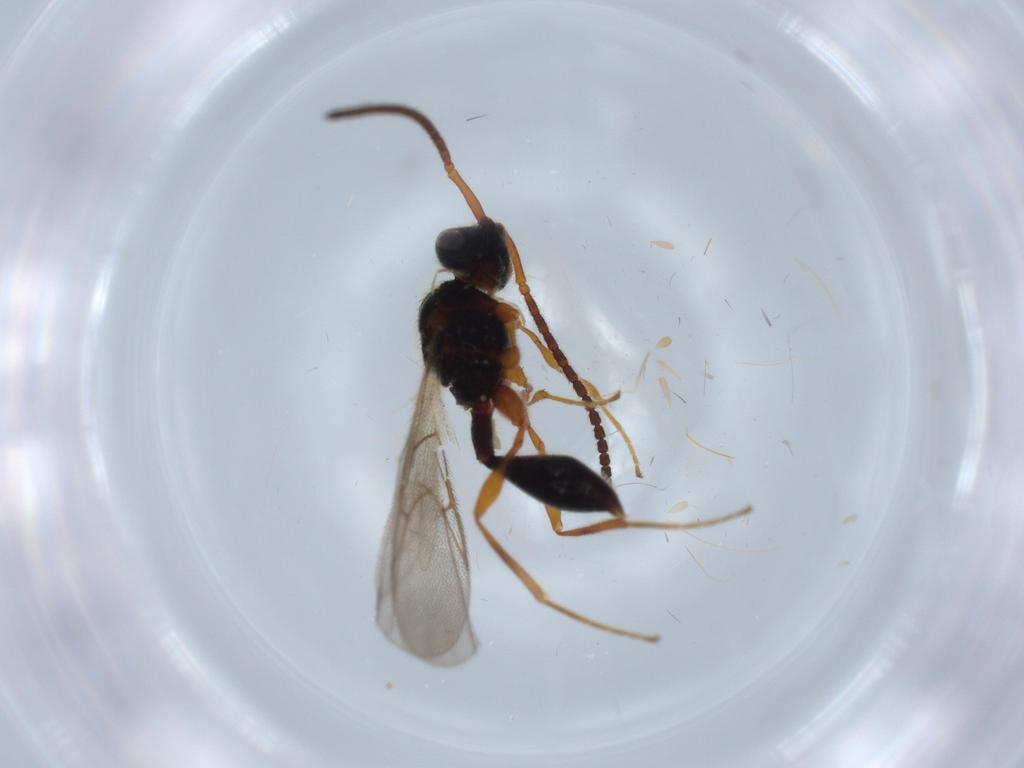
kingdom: Animalia
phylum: Arthropoda
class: Insecta
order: Hymenoptera
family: Diapriidae
